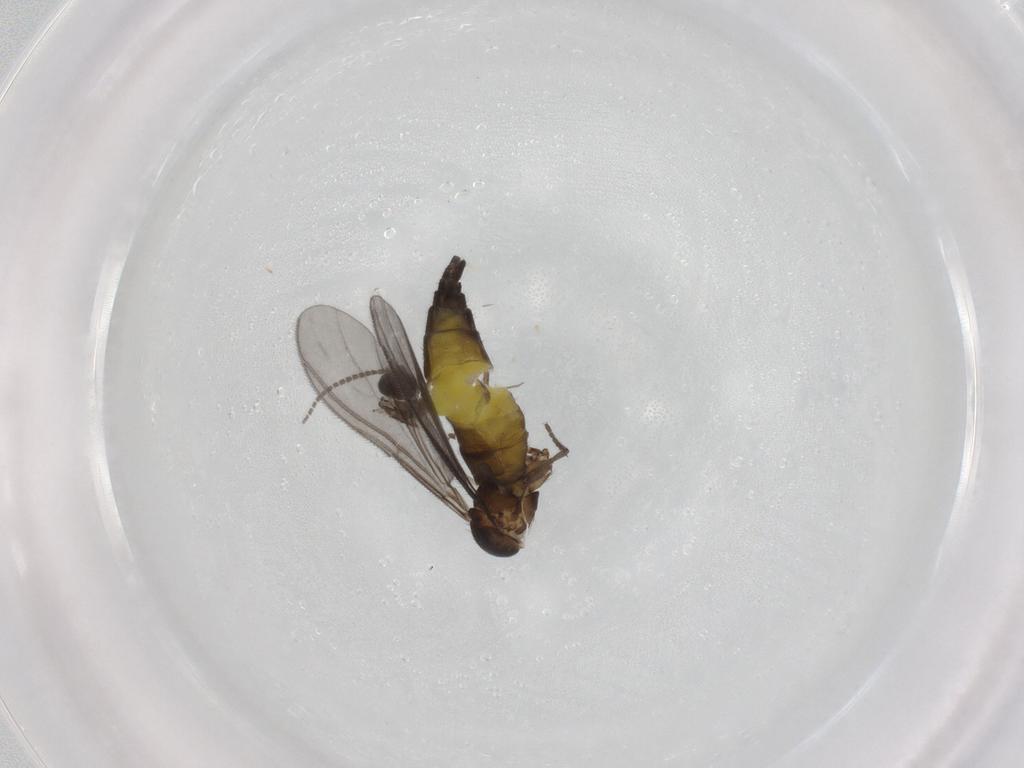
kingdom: Animalia
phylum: Arthropoda
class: Insecta
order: Diptera
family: Sciaridae
